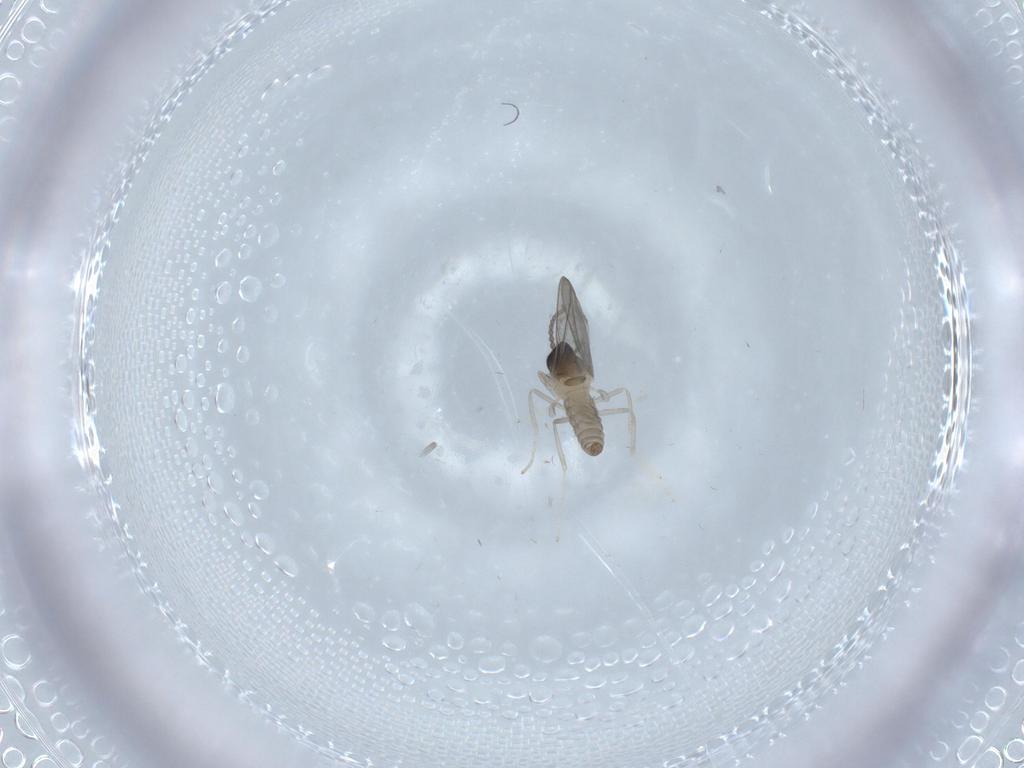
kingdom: Animalia
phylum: Arthropoda
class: Insecta
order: Diptera
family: Cecidomyiidae
